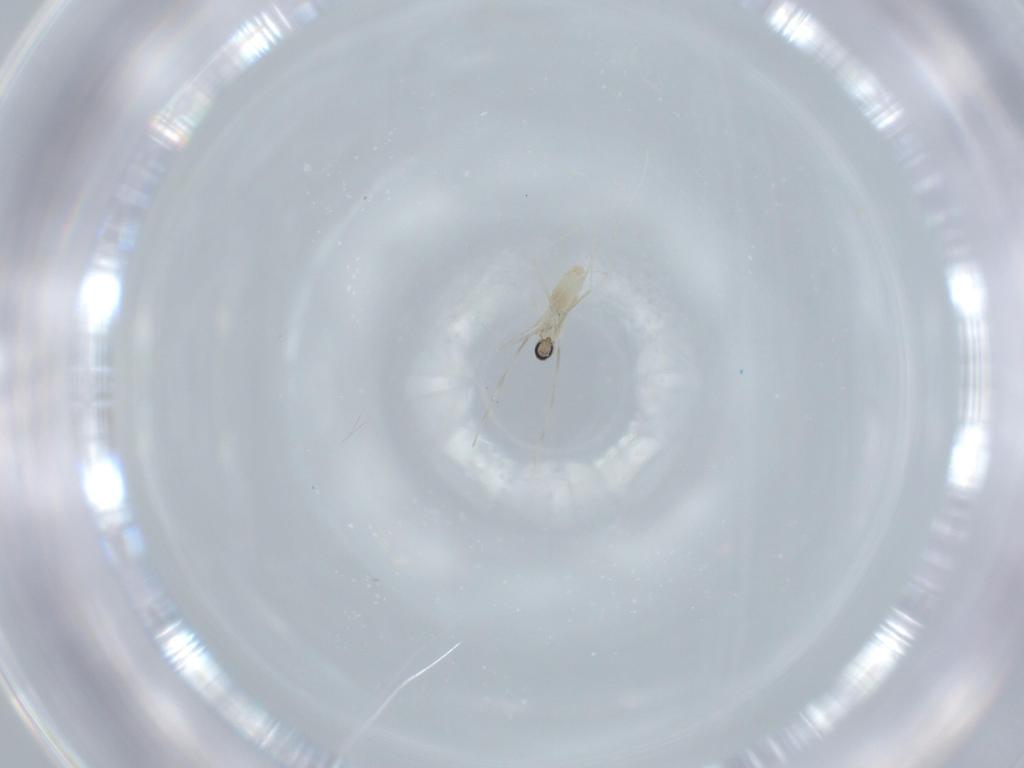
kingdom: Animalia
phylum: Arthropoda
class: Insecta
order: Diptera
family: Cecidomyiidae
